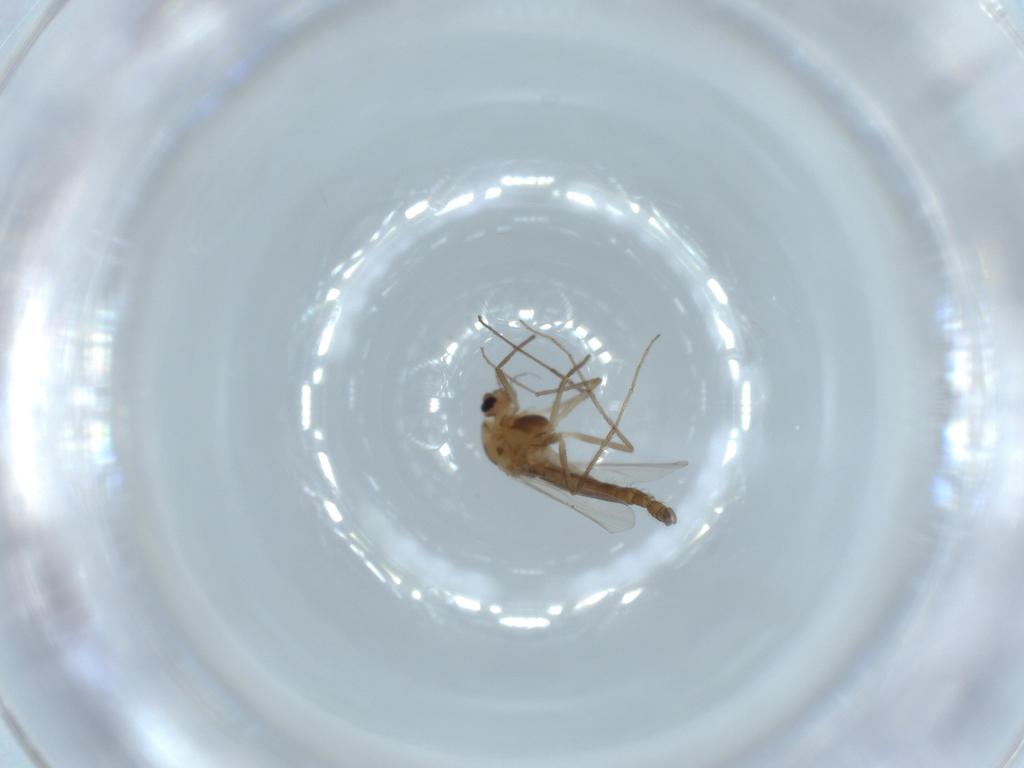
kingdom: Animalia
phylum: Arthropoda
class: Insecta
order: Diptera
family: Chironomidae
